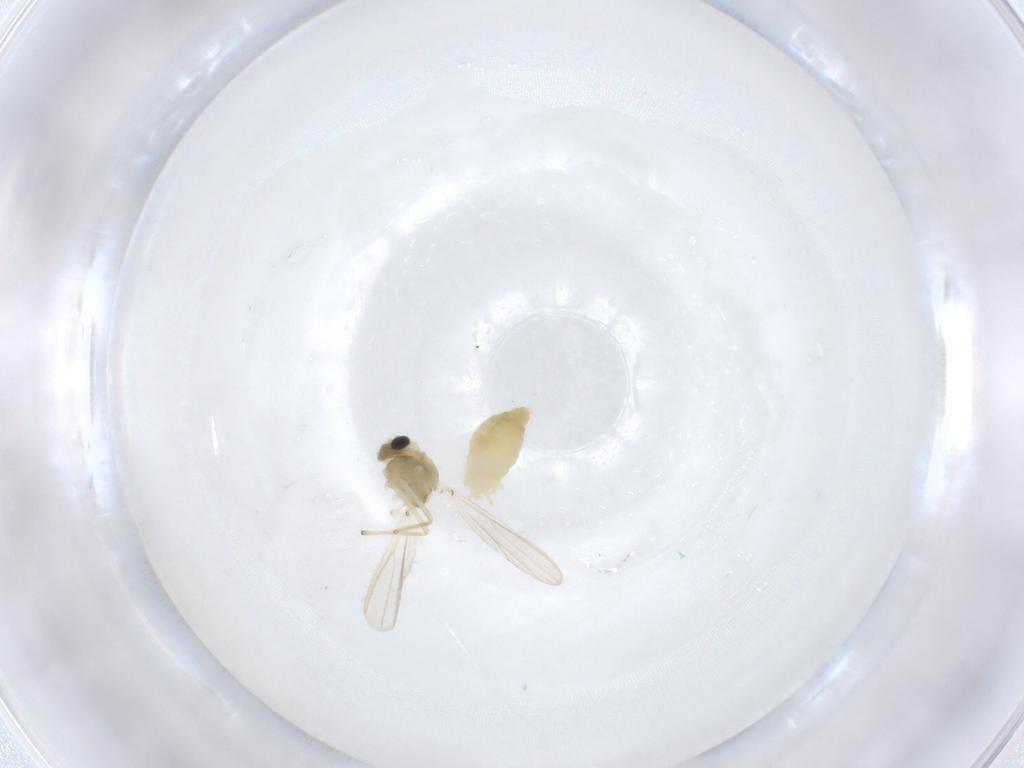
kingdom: Animalia
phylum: Arthropoda
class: Insecta
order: Diptera
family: Chironomidae
